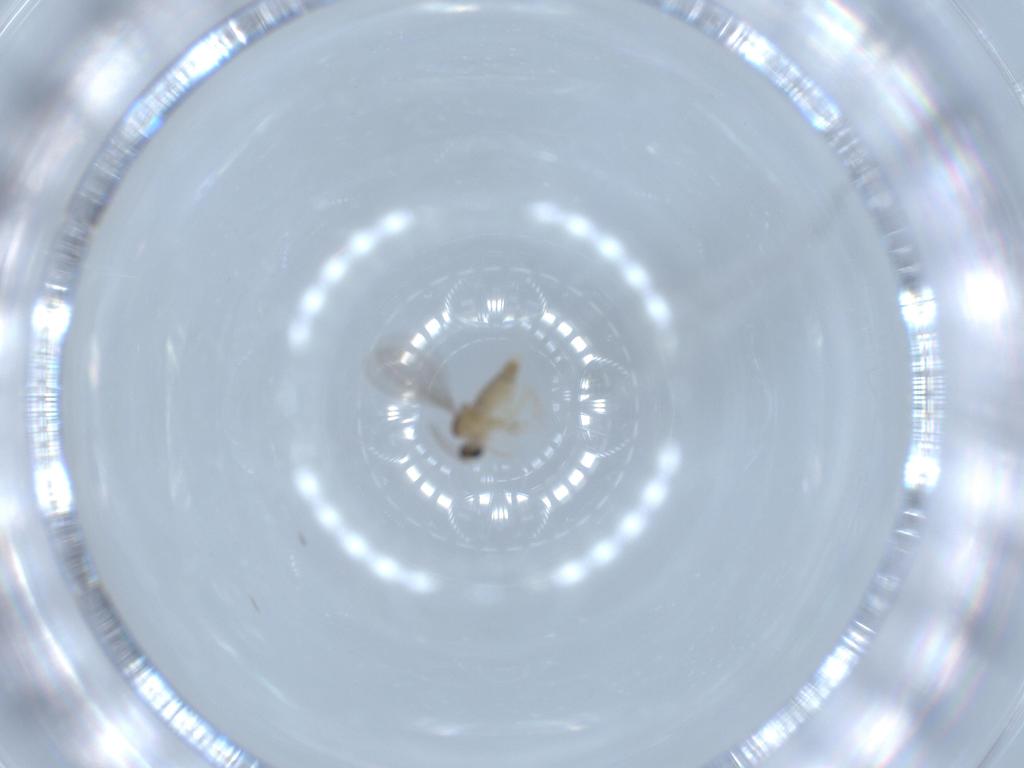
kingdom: Animalia
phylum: Arthropoda
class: Insecta
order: Diptera
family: Cecidomyiidae
